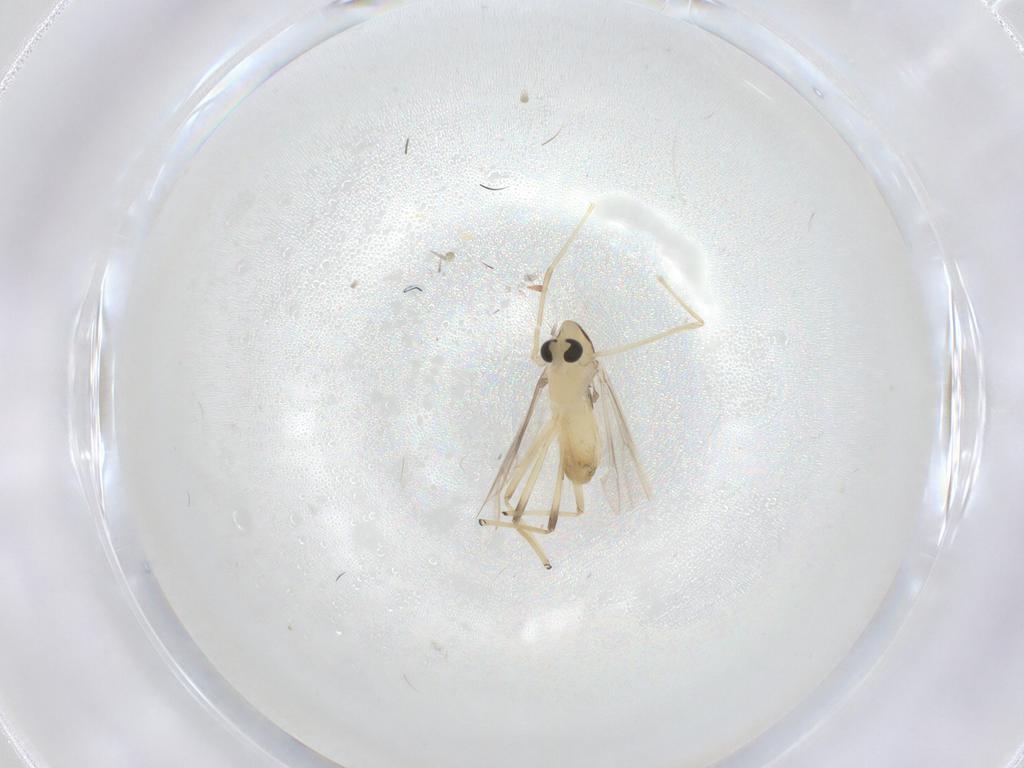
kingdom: Animalia
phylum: Arthropoda
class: Insecta
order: Diptera
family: Chironomidae
